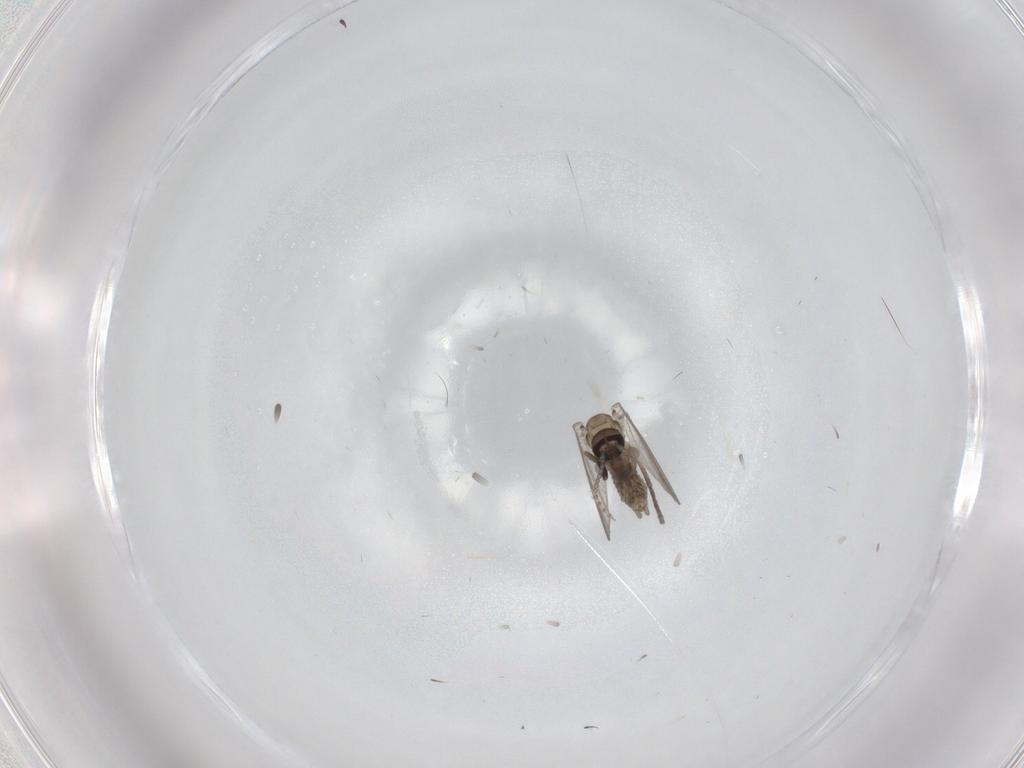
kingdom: Animalia
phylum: Arthropoda
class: Insecta
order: Diptera
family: Psychodidae
